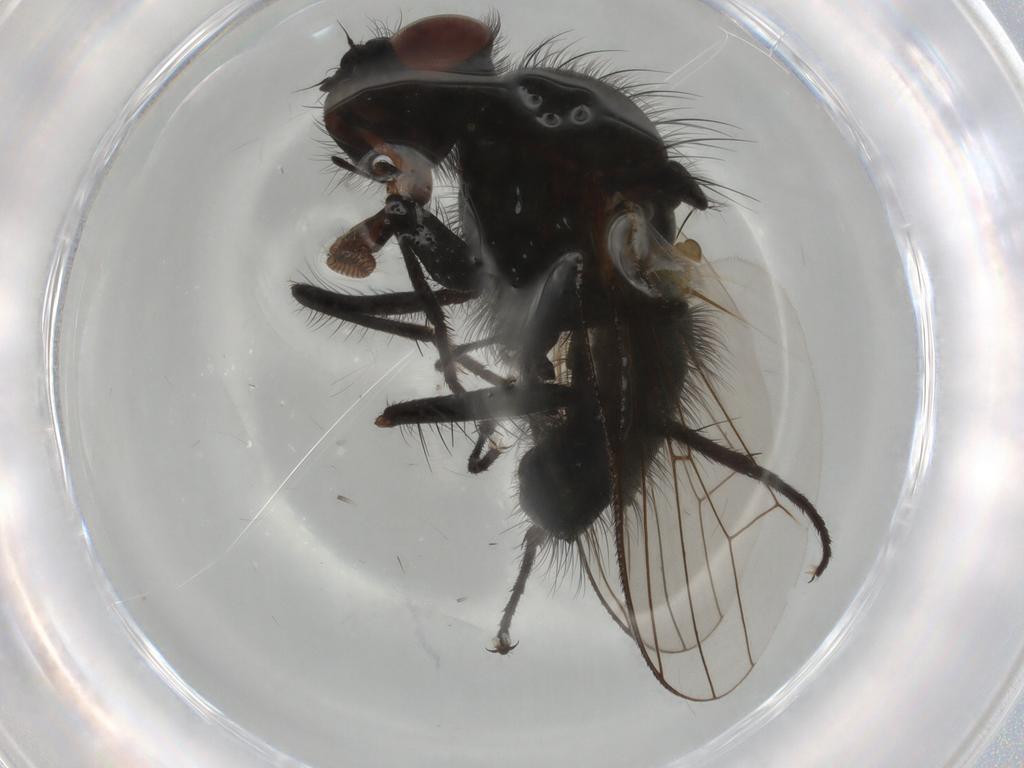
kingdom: Animalia
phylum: Arthropoda
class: Insecta
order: Diptera
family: Anthomyiidae
